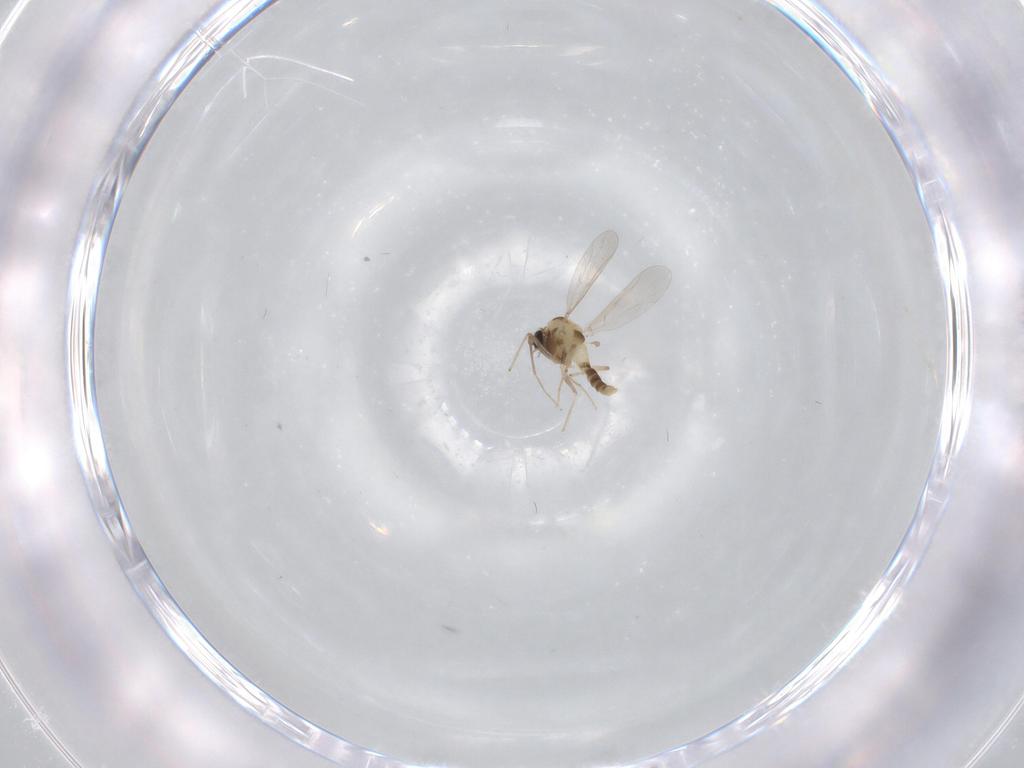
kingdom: Animalia
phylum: Arthropoda
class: Insecta
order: Diptera
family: Chironomidae
